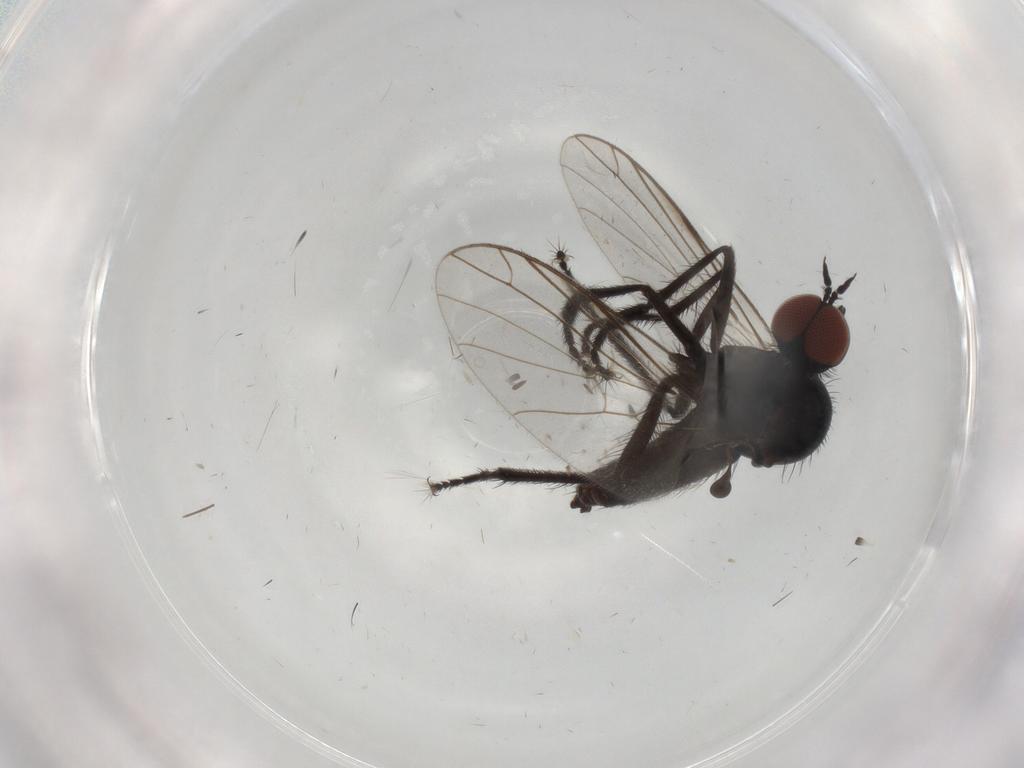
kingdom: Animalia
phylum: Arthropoda
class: Insecta
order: Diptera
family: Empididae
